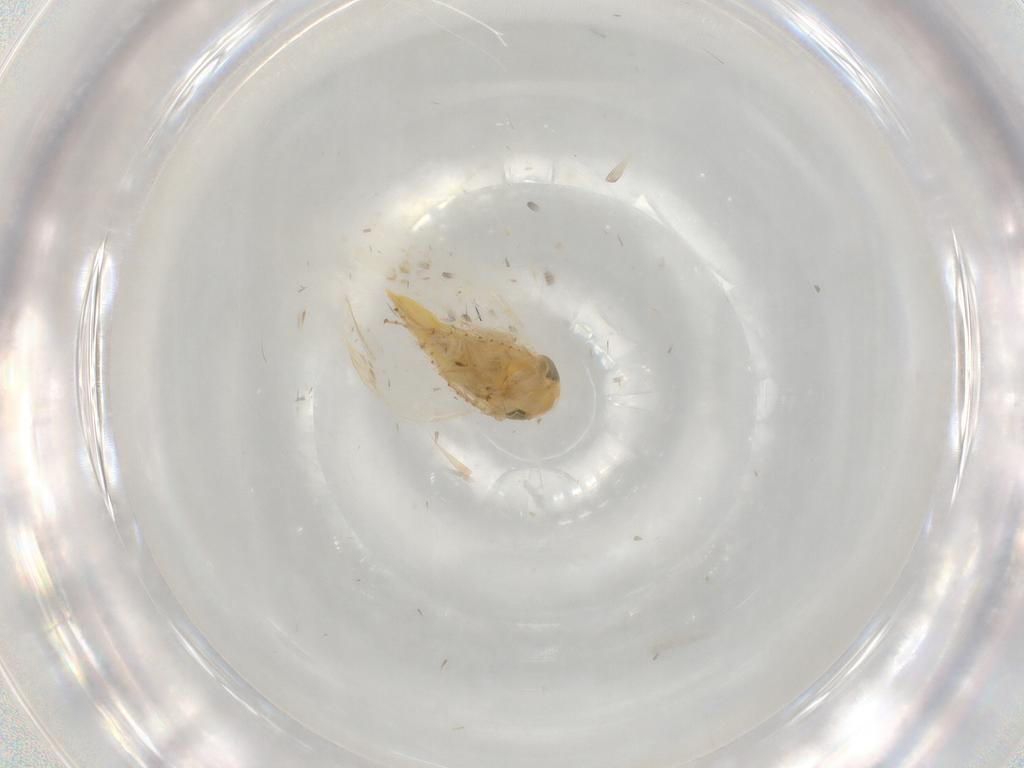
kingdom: Animalia
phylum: Arthropoda
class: Insecta
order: Hemiptera
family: Cicadellidae
